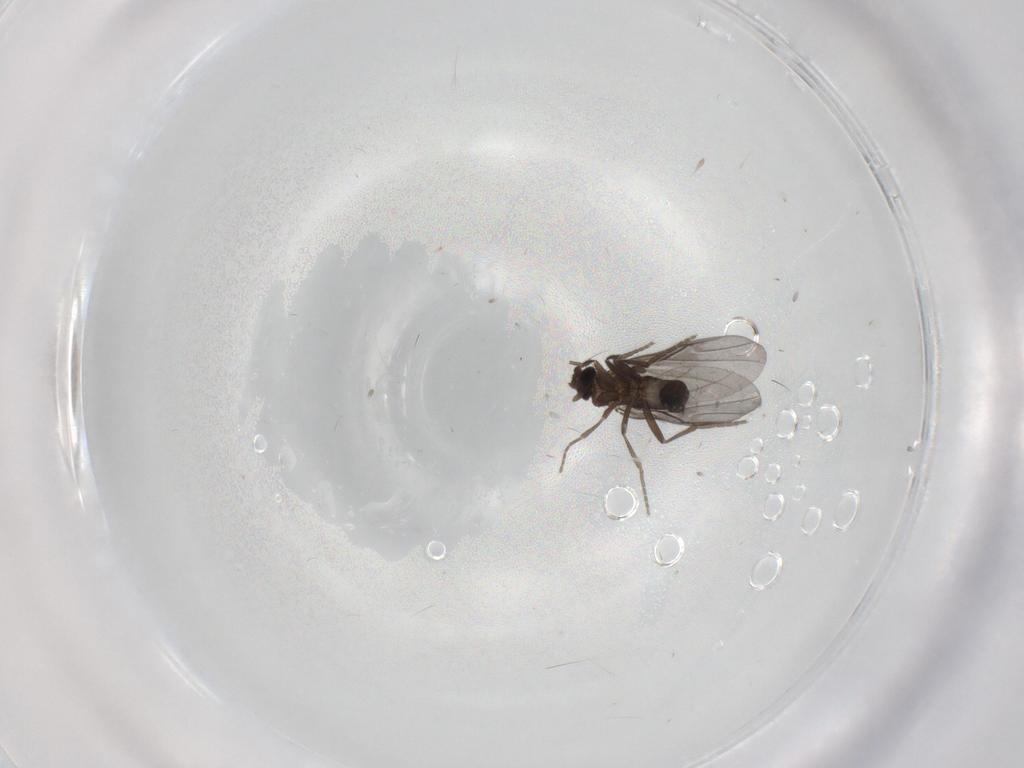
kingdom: Animalia
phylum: Arthropoda
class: Insecta
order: Diptera
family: Phoridae
